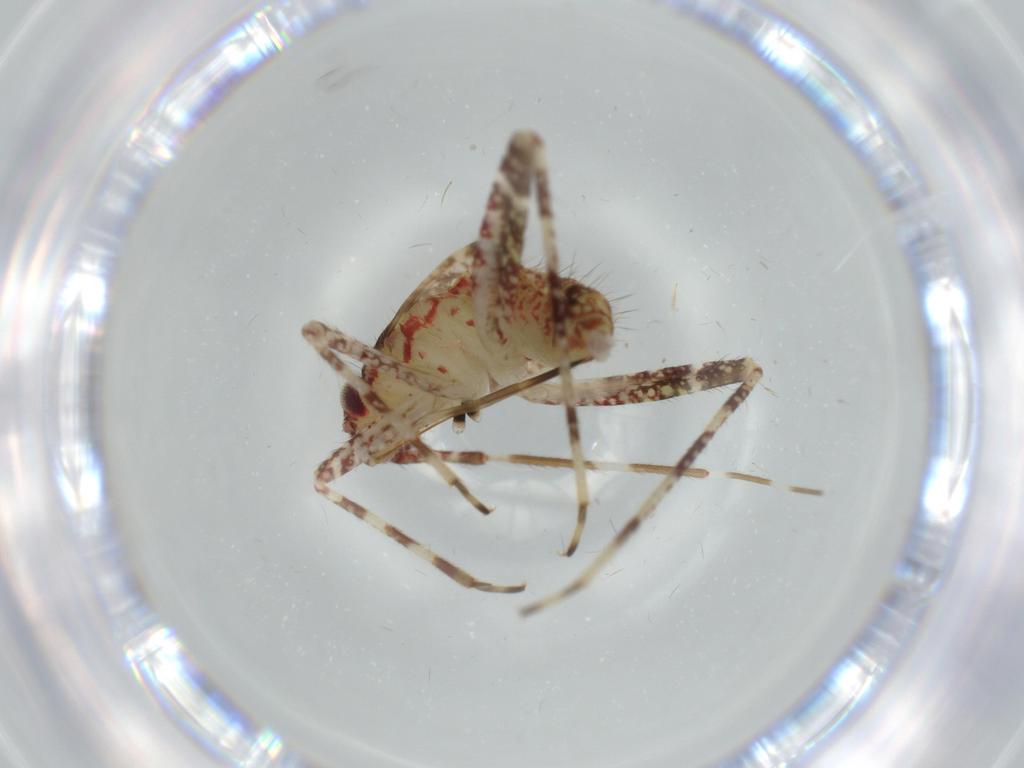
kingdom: Animalia
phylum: Arthropoda
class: Insecta
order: Hemiptera
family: Miridae
